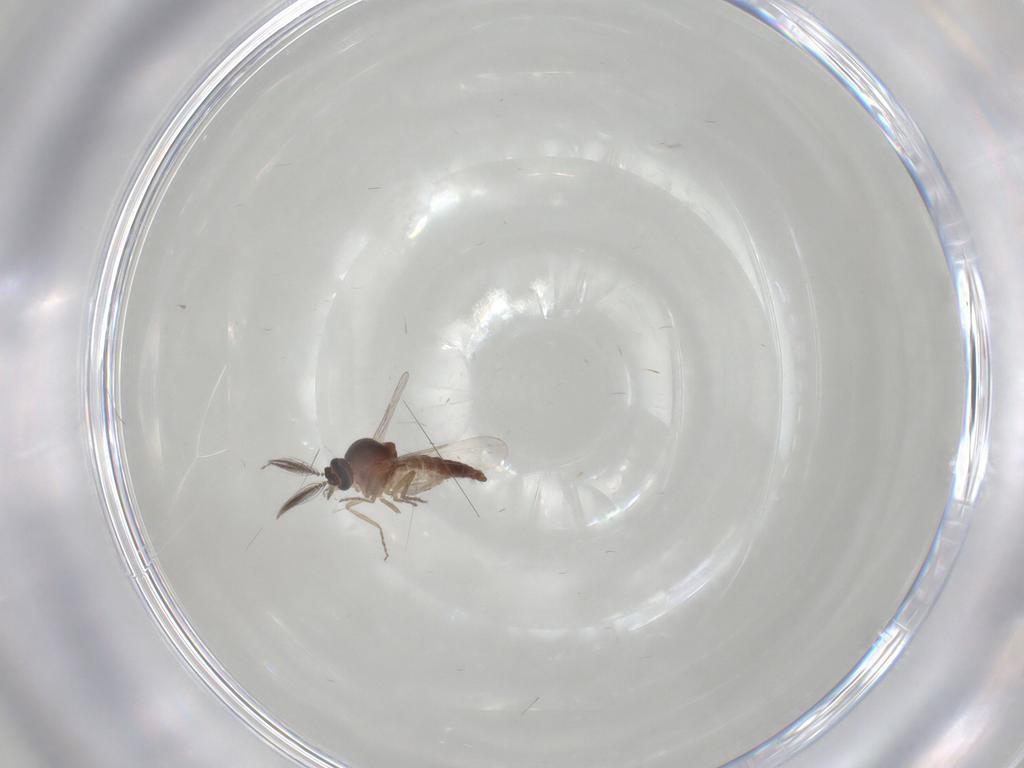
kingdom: Animalia
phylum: Arthropoda
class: Insecta
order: Diptera
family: Ceratopogonidae
